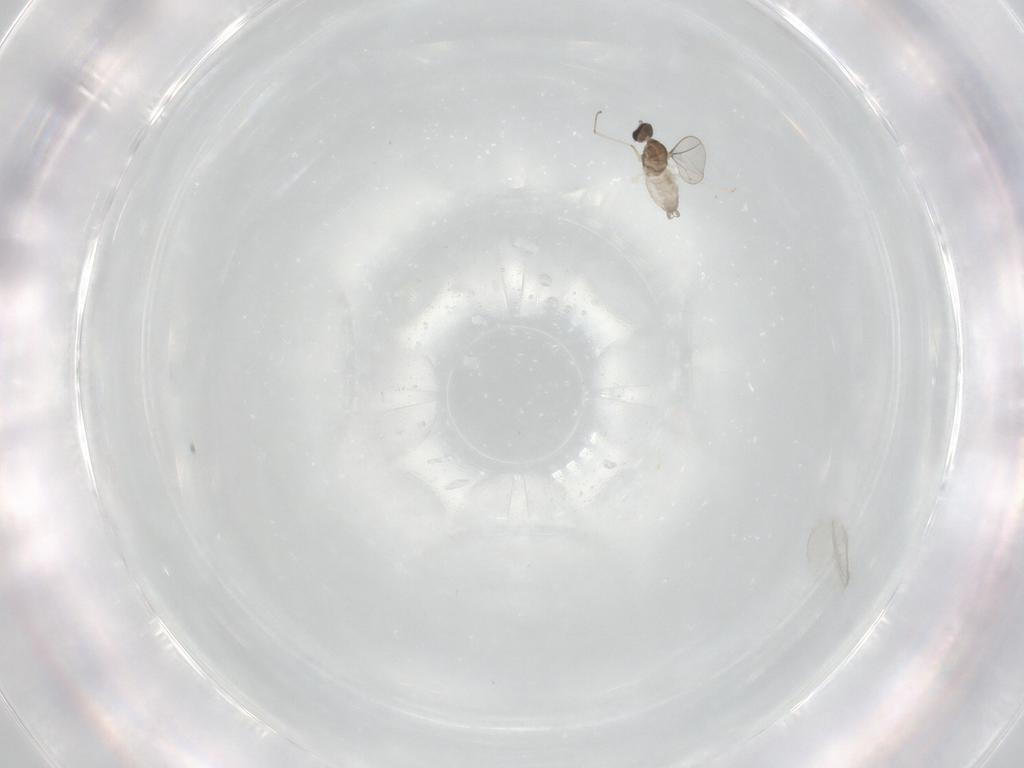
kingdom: Animalia
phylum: Arthropoda
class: Insecta
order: Diptera
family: Cecidomyiidae
